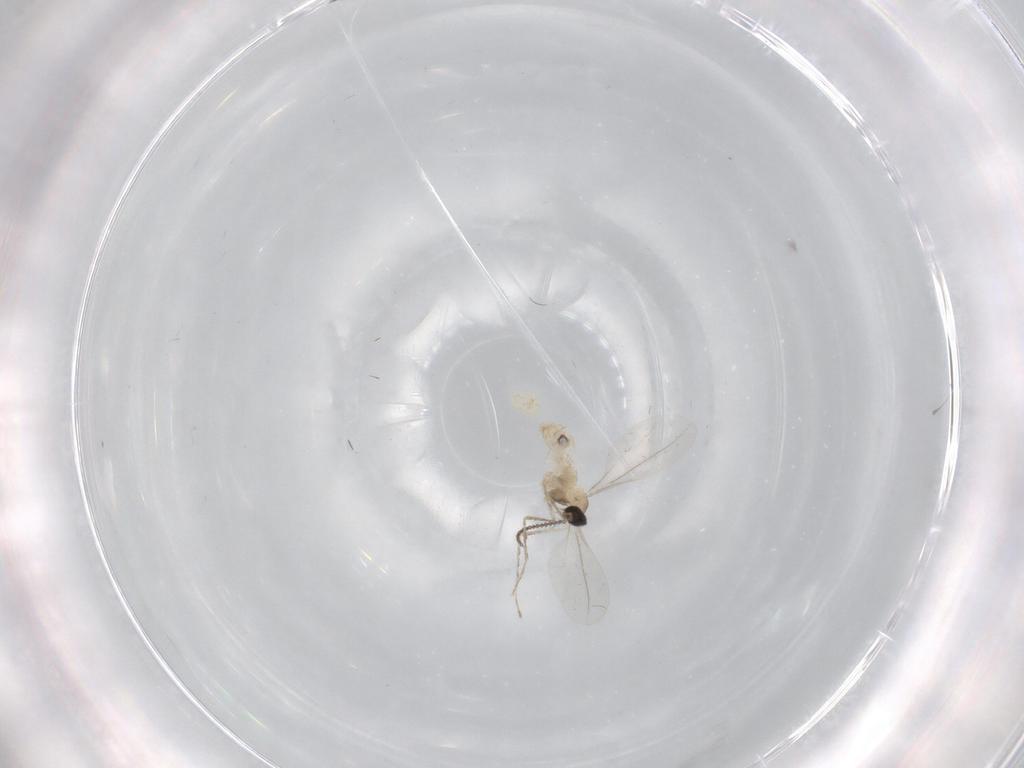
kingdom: Animalia
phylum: Arthropoda
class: Insecta
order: Diptera
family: Cecidomyiidae
